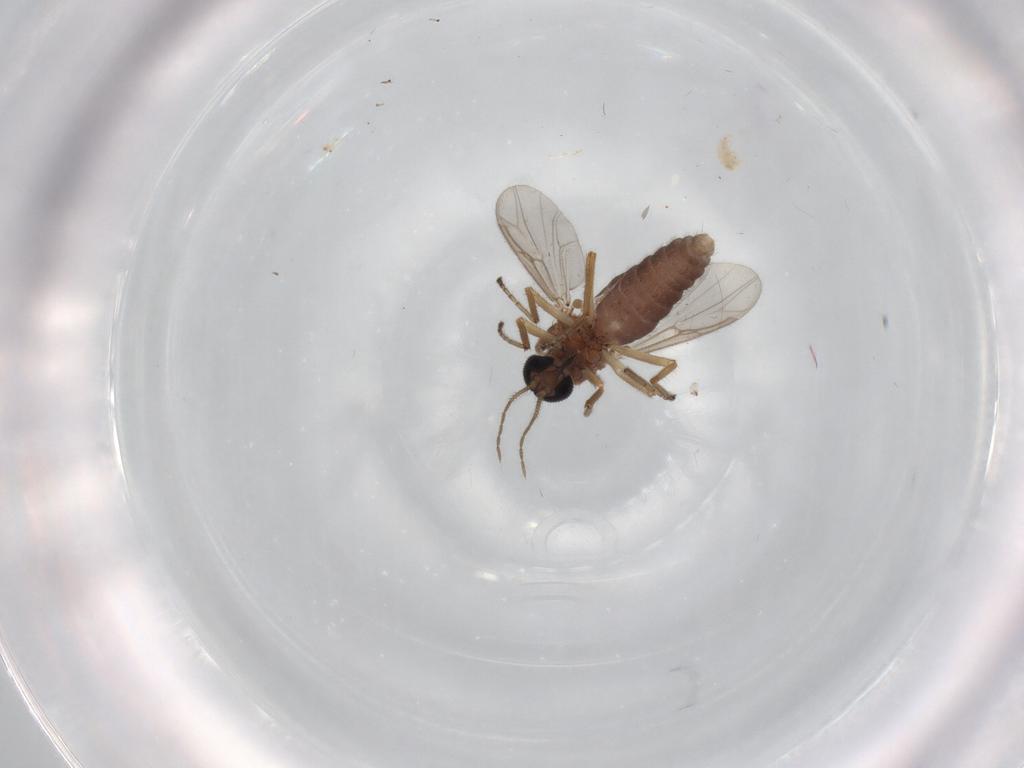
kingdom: Animalia
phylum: Arthropoda
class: Insecta
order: Diptera
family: Ceratopogonidae
